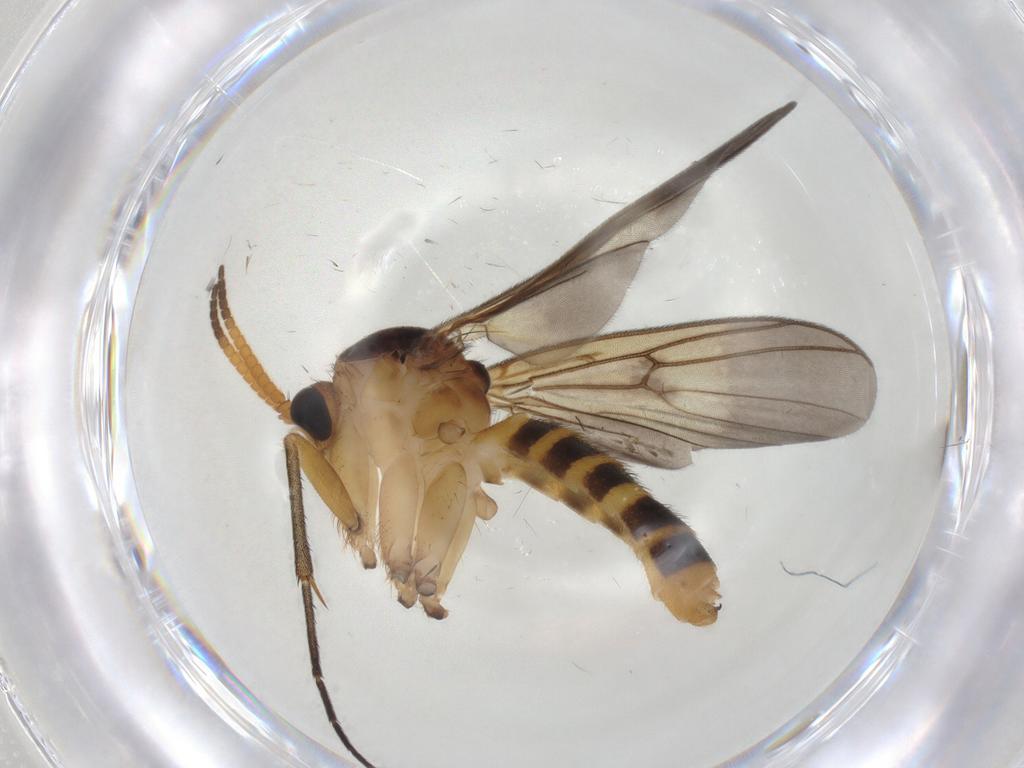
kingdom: Animalia
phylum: Arthropoda
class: Insecta
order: Diptera
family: Phoridae
